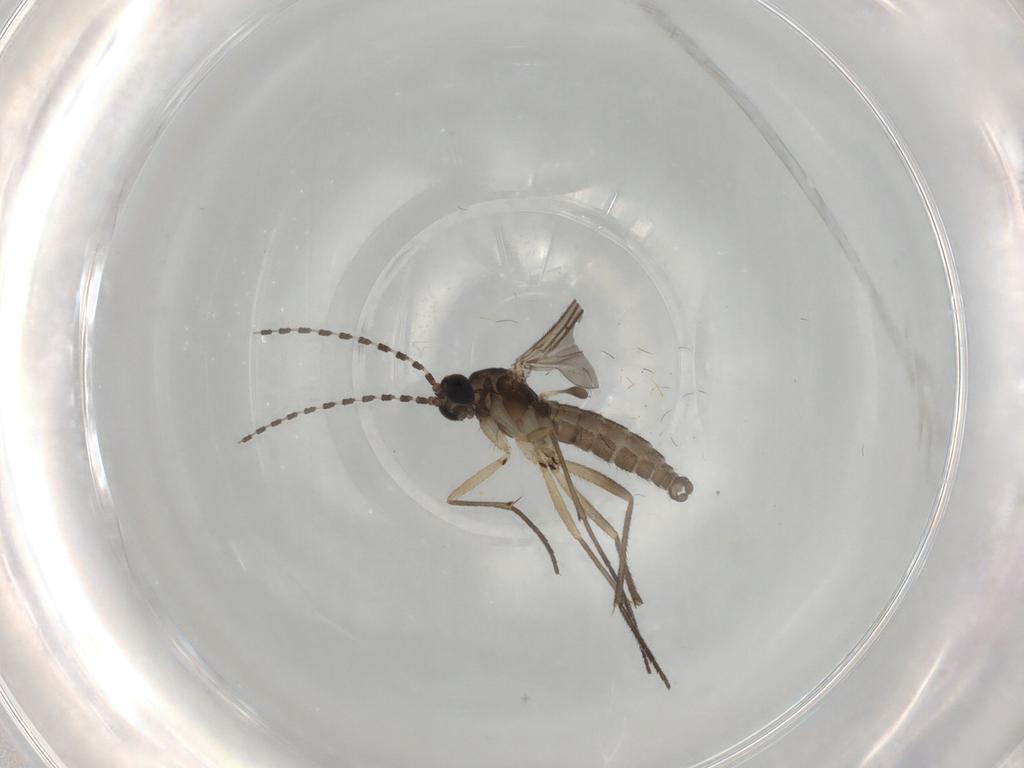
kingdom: Animalia
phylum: Arthropoda
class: Insecta
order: Diptera
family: Sciaridae
